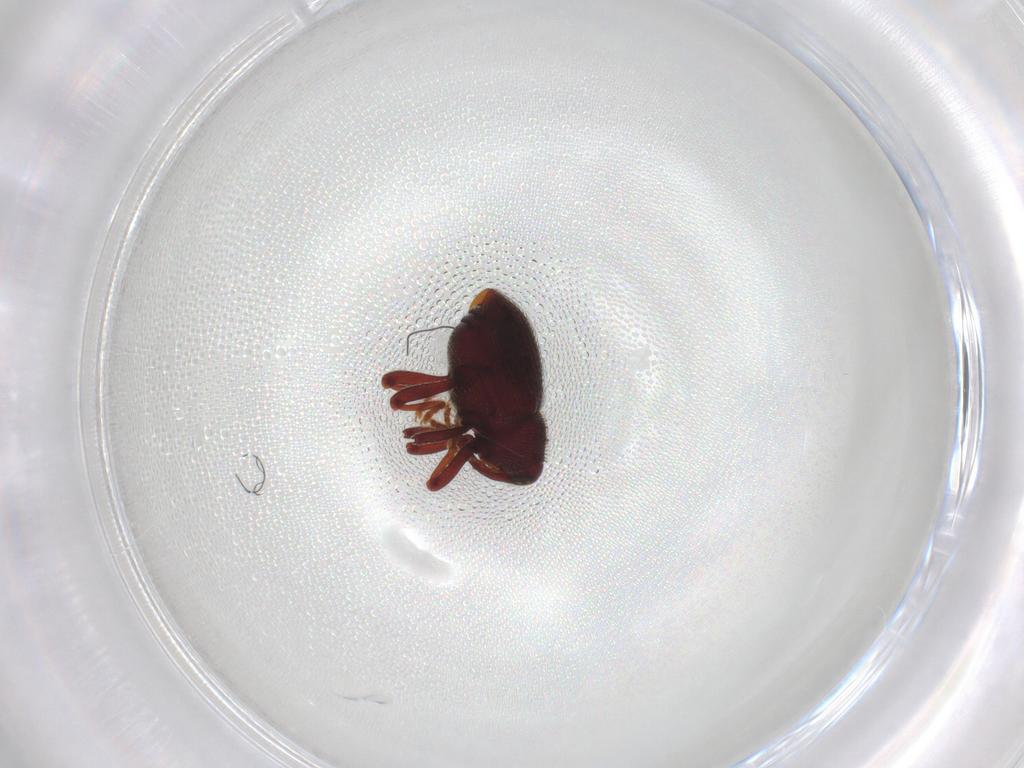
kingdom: Animalia
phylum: Arthropoda
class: Insecta
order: Coleoptera
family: Curculionidae
